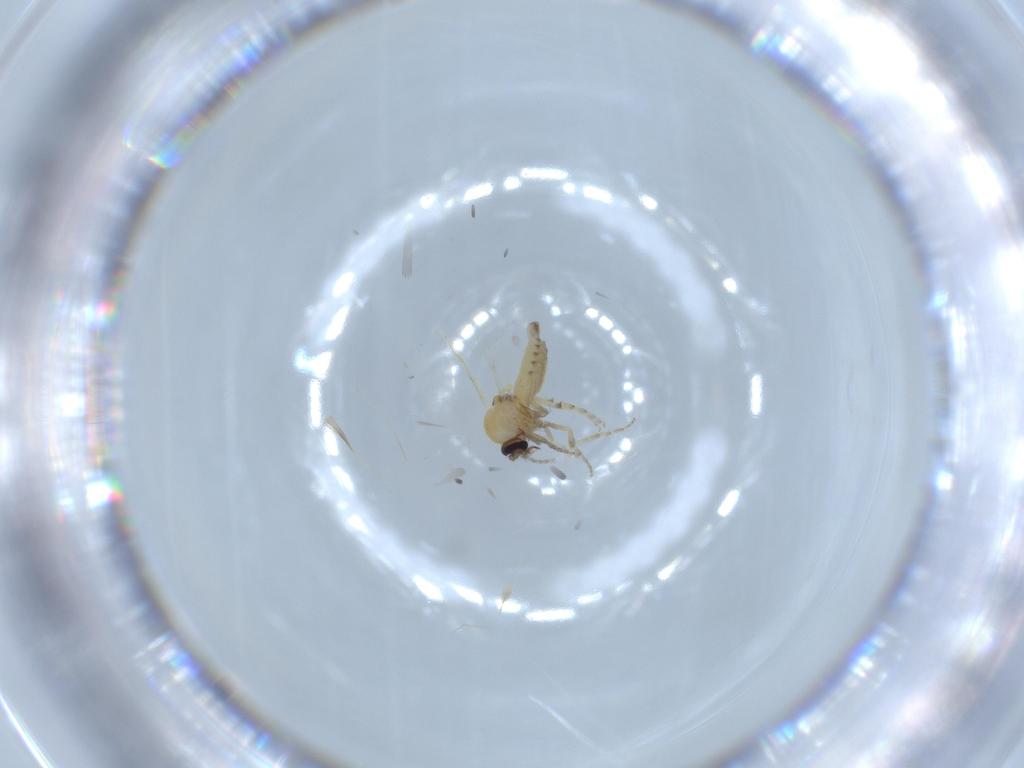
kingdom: Animalia
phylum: Arthropoda
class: Insecta
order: Diptera
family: Ceratopogonidae
